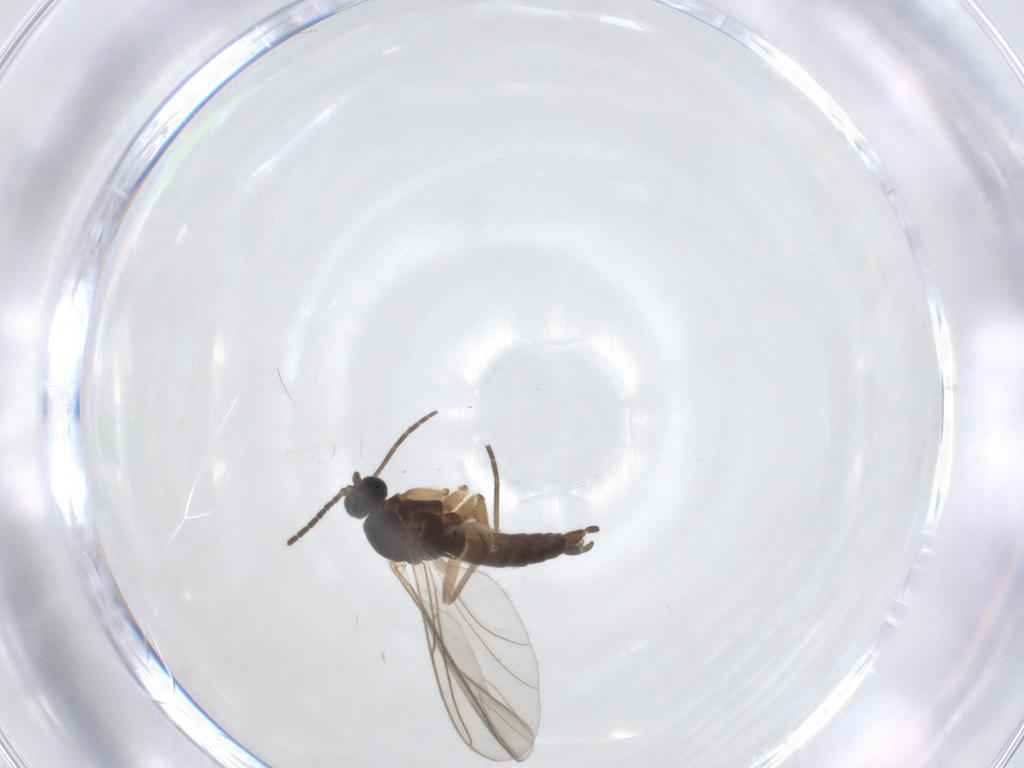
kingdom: Animalia
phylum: Arthropoda
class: Insecta
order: Diptera
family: Sciaridae
